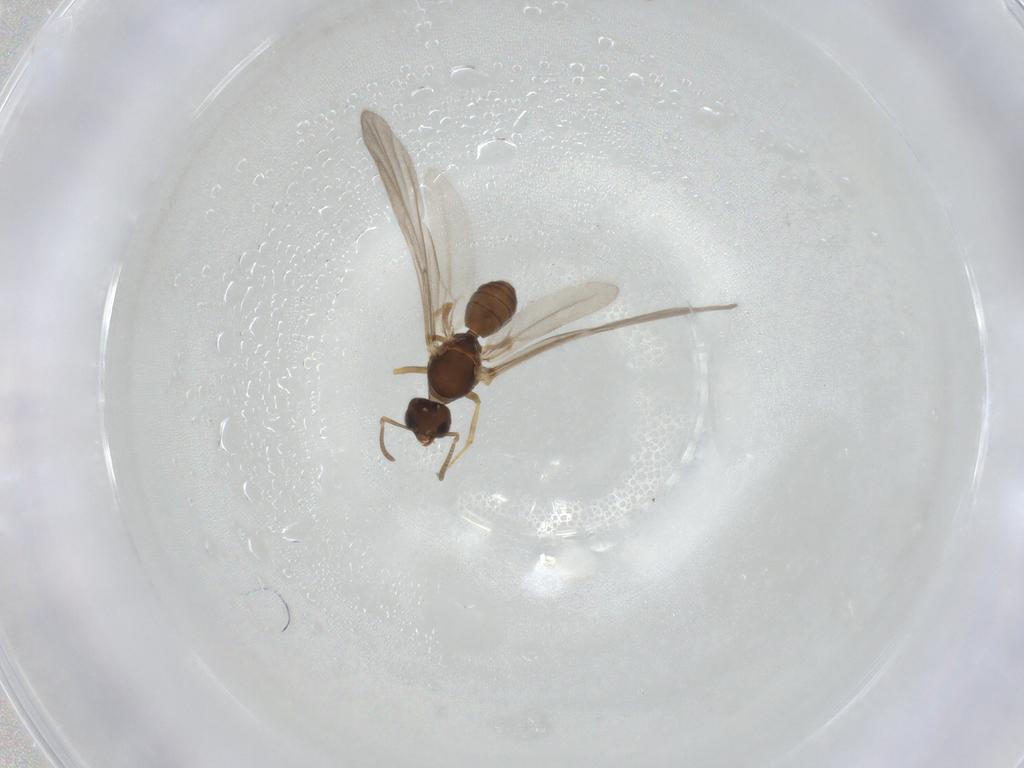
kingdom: Animalia
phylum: Arthropoda
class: Insecta
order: Hymenoptera
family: Formicidae
